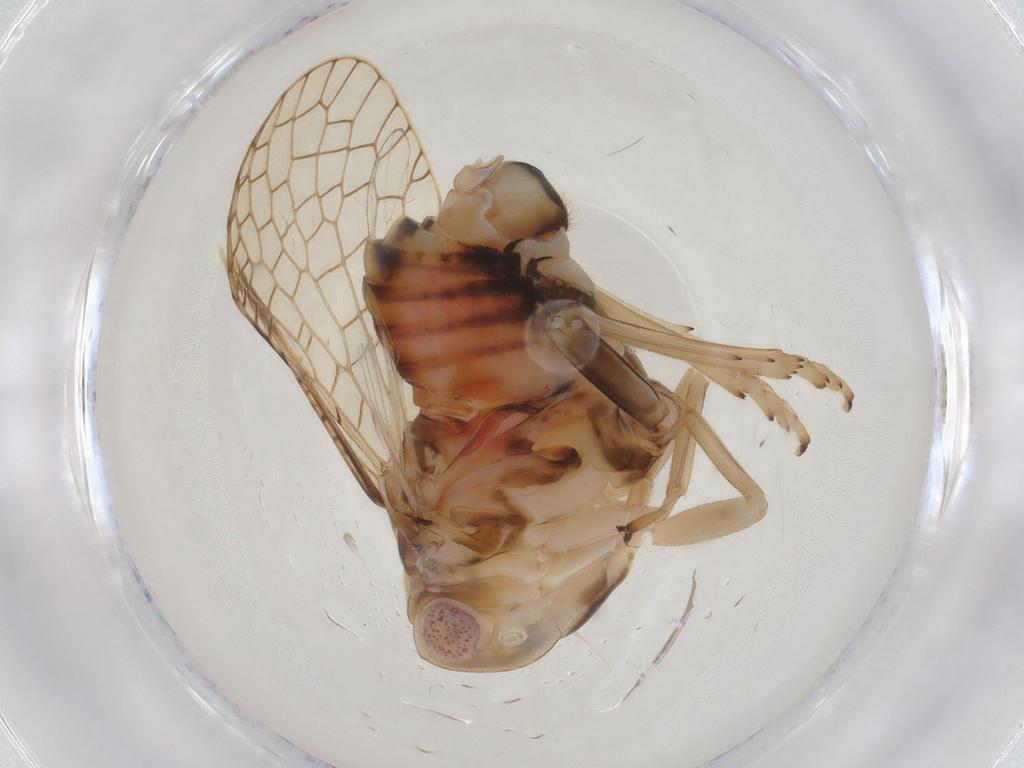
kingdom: Animalia
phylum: Arthropoda
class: Insecta
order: Hemiptera
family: Tropiduchidae
